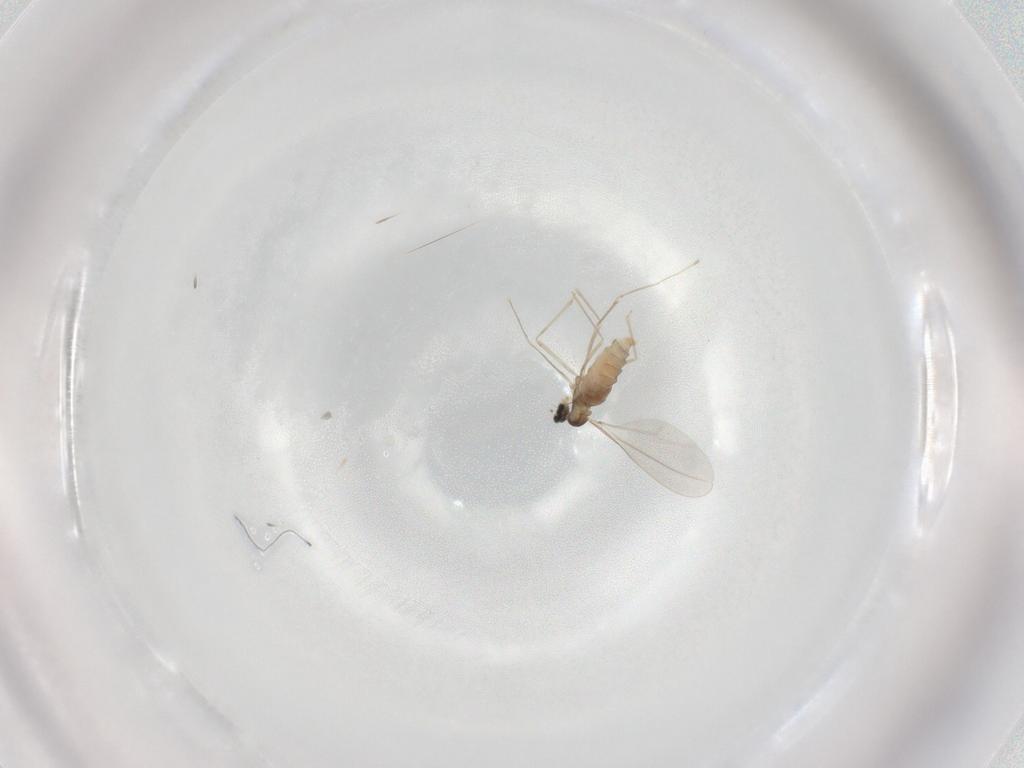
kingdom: Animalia
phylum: Arthropoda
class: Insecta
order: Diptera
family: Cecidomyiidae
